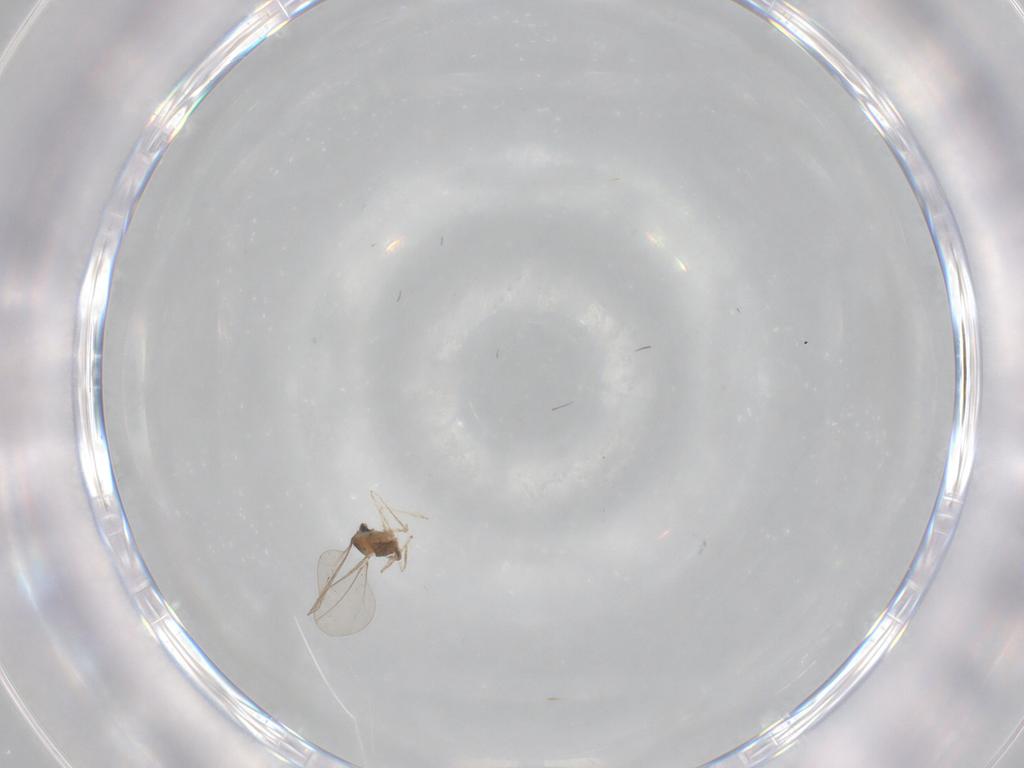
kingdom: Animalia
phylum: Arthropoda
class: Insecta
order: Diptera
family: Cecidomyiidae
